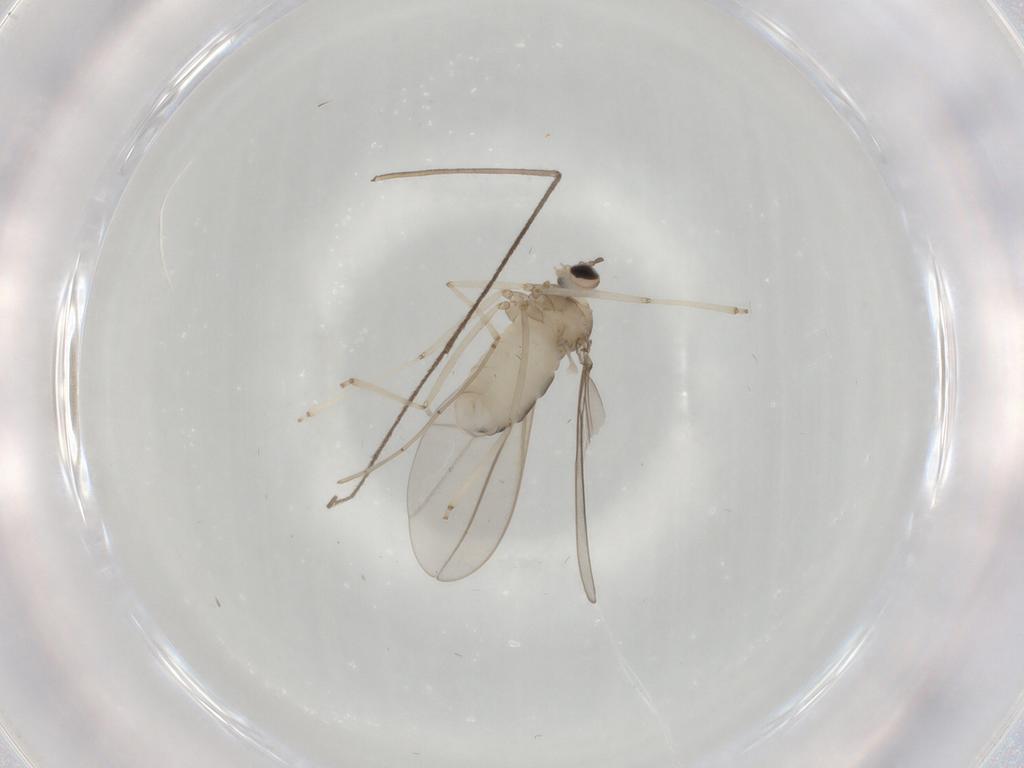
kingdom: Animalia
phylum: Arthropoda
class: Insecta
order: Diptera
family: Cecidomyiidae
